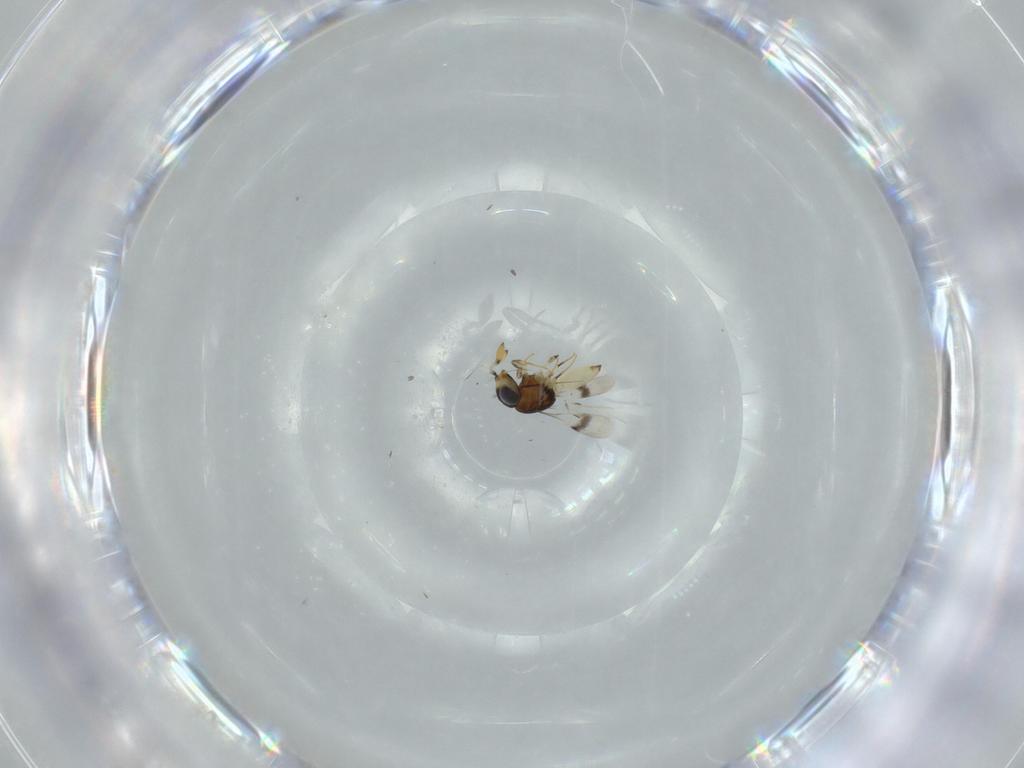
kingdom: Animalia
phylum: Arthropoda
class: Insecta
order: Hymenoptera
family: Scelionidae
